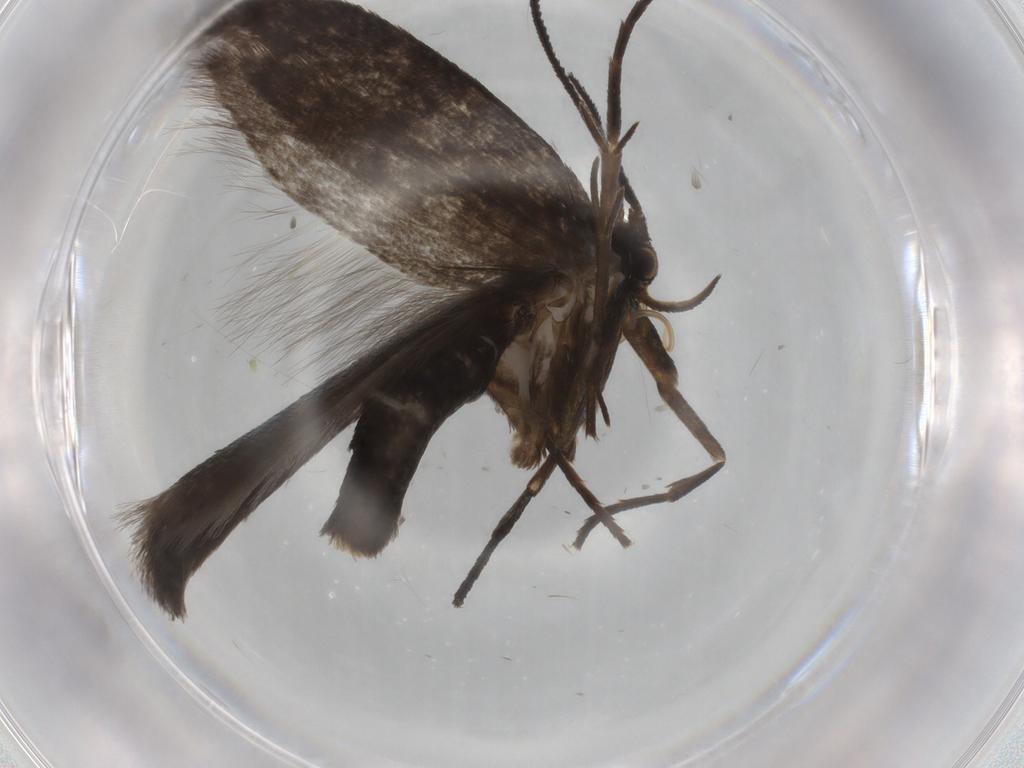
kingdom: Animalia
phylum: Arthropoda
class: Insecta
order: Lepidoptera
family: Argyresthiidae
